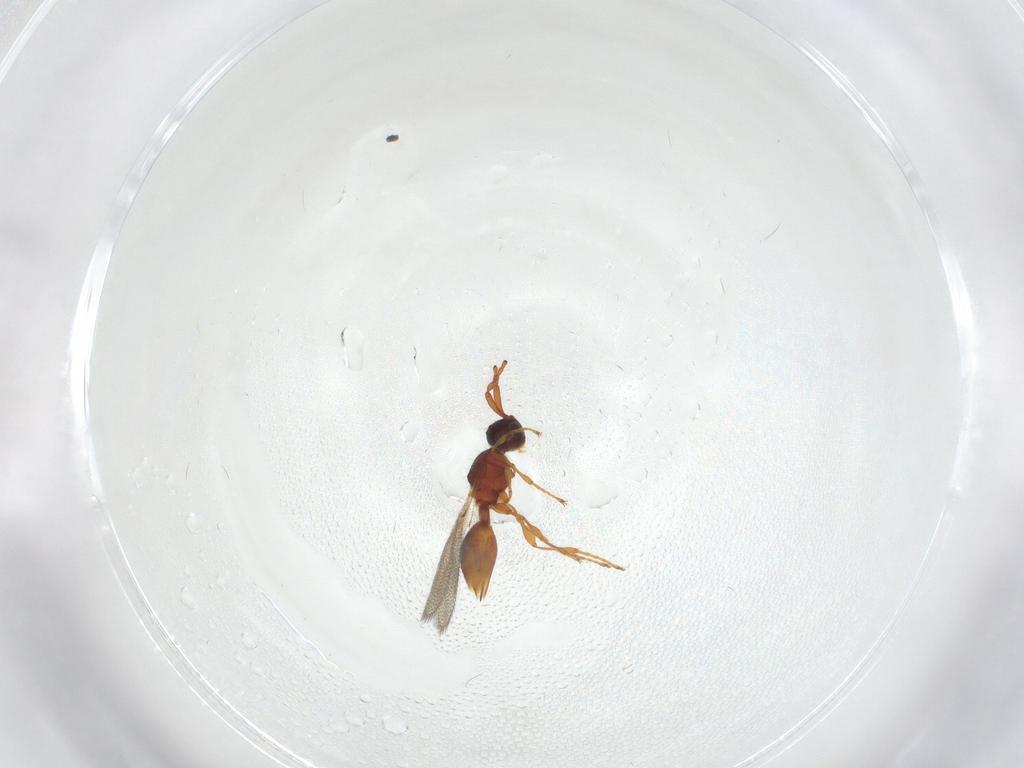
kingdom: Animalia
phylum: Arthropoda
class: Insecta
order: Hymenoptera
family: Diapriidae
